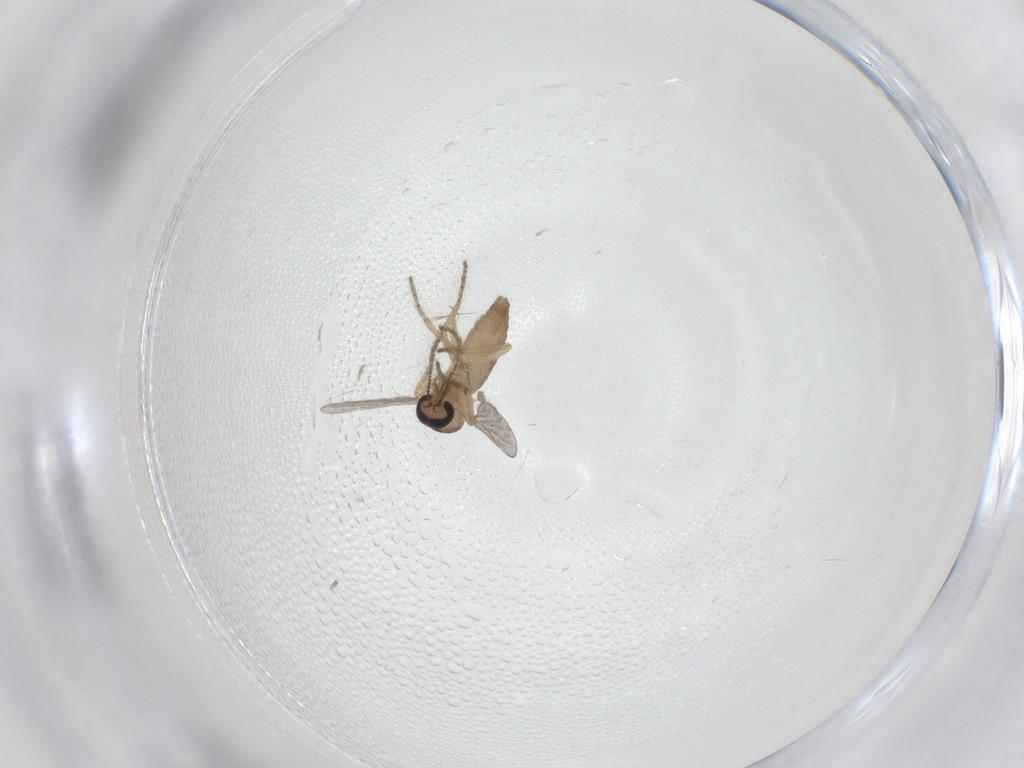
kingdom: Animalia
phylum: Arthropoda
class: Insecta
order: Diptera
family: Ceratopogonidae
